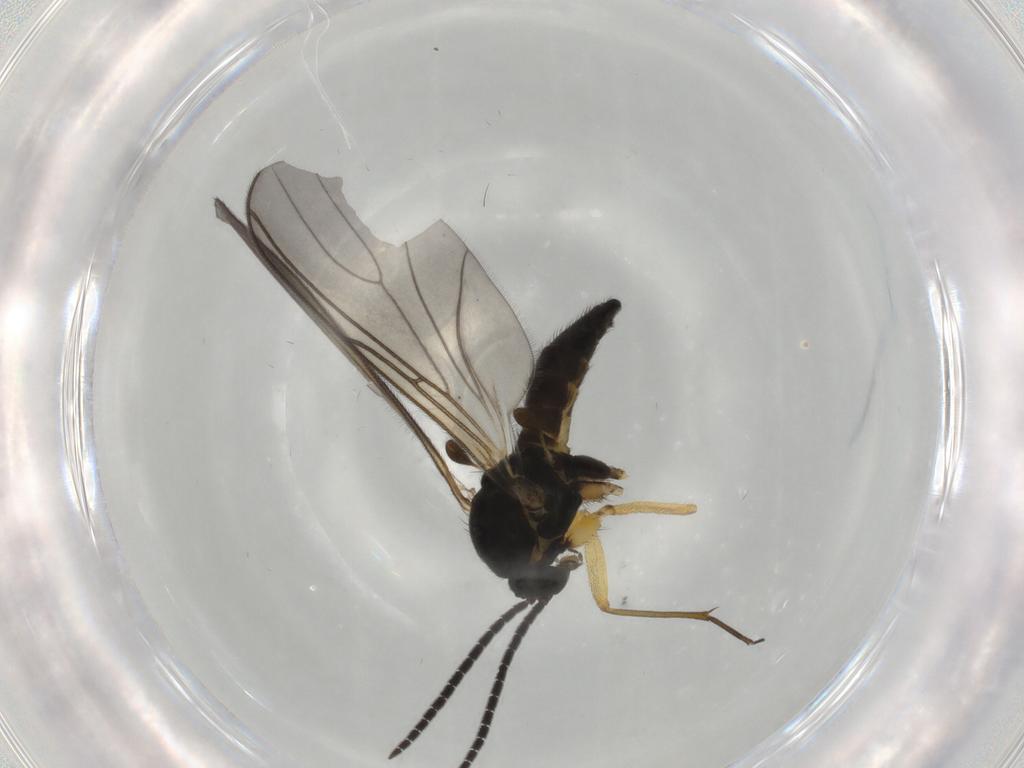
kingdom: Animalia
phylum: Arthropoda
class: Insecta
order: Diptera
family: Sciaridae
